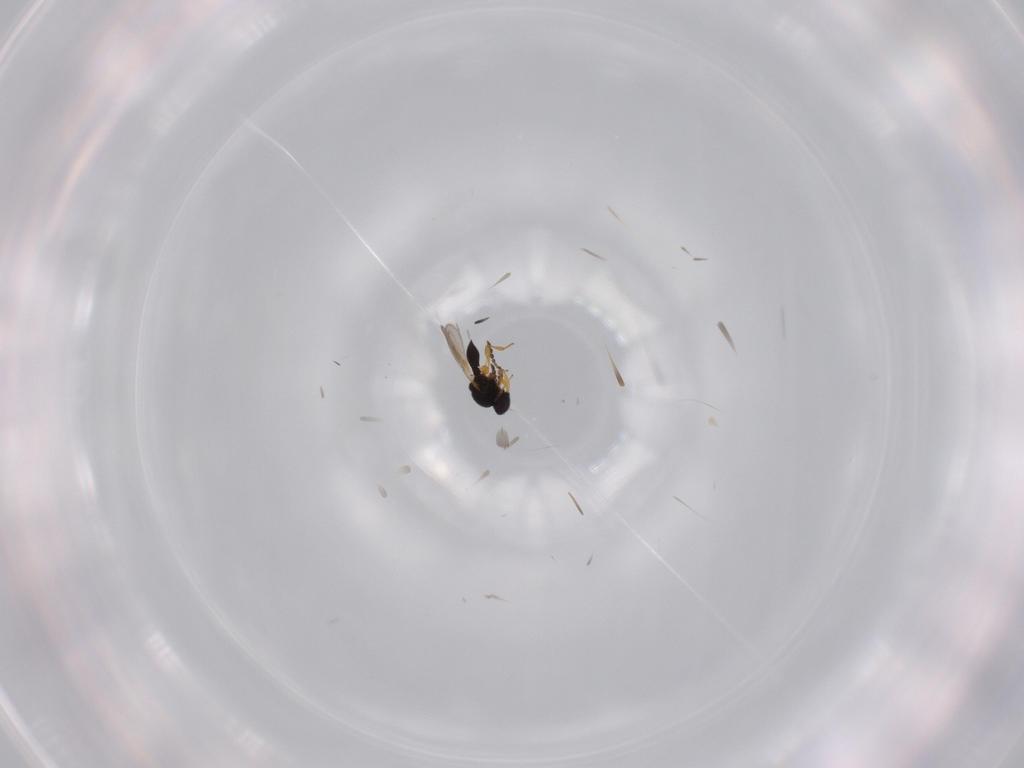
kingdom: Animalia
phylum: Arthropoda
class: Insecta
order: Hymenoptera
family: Platygastridae
